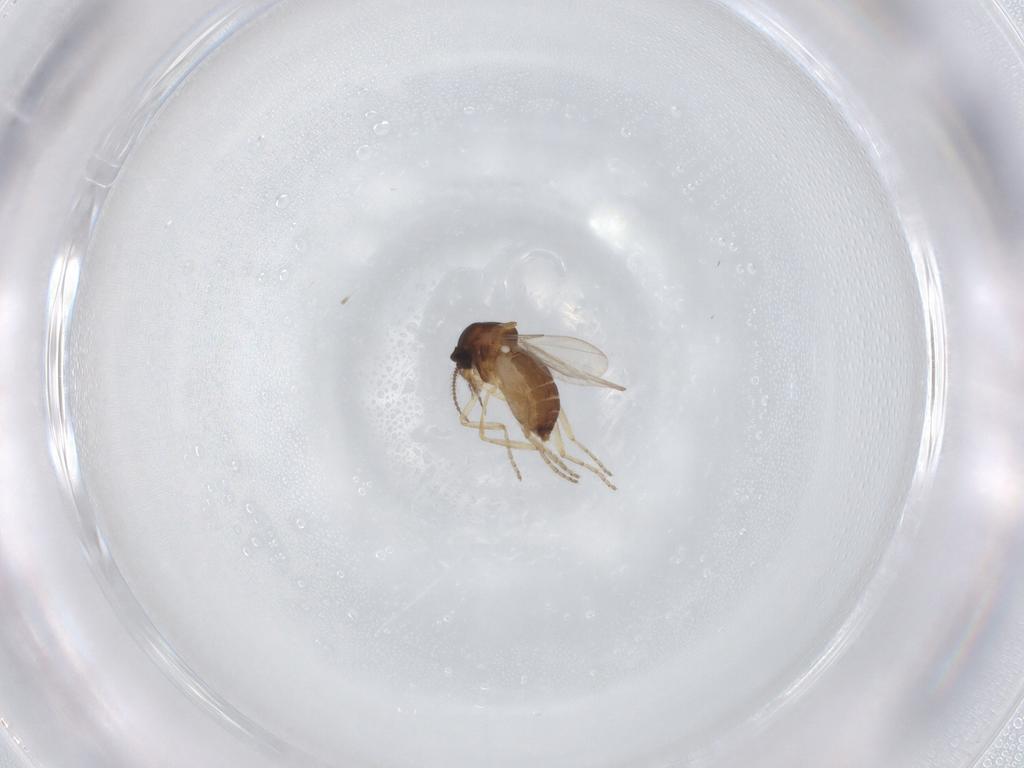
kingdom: Animalia
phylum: Arthropoda
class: Insecta
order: Diptera
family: Ceratopogonidae
